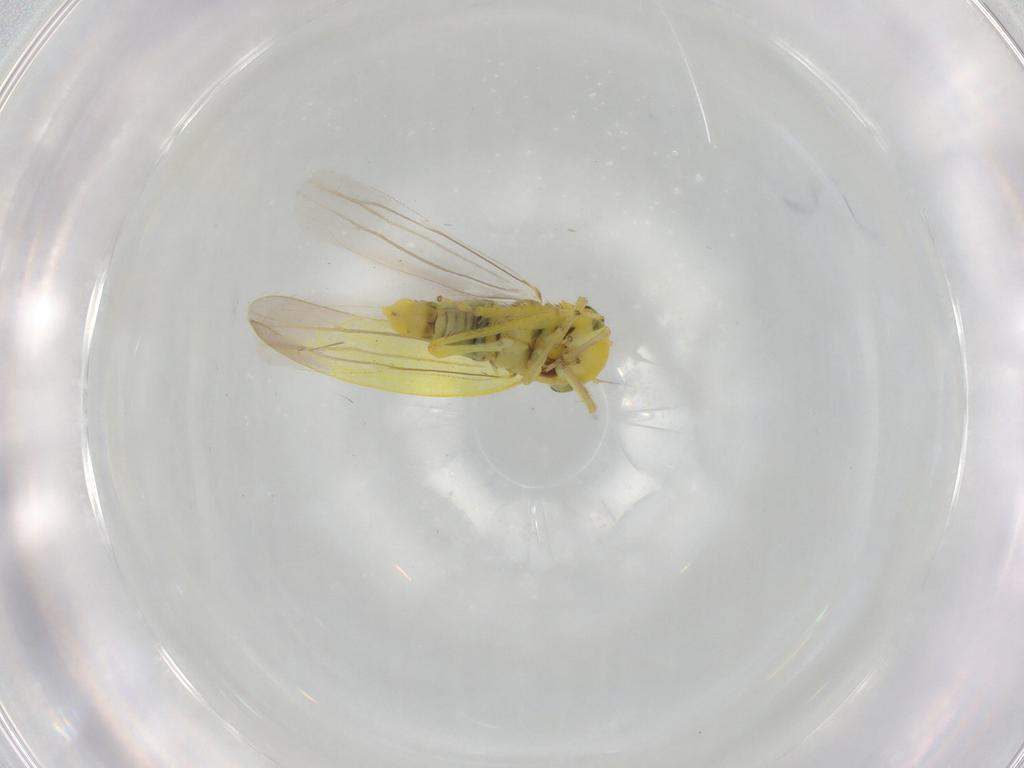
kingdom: Animalia
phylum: Arthropoda
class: Insecta
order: Hemiptera
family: Cicadellidae
